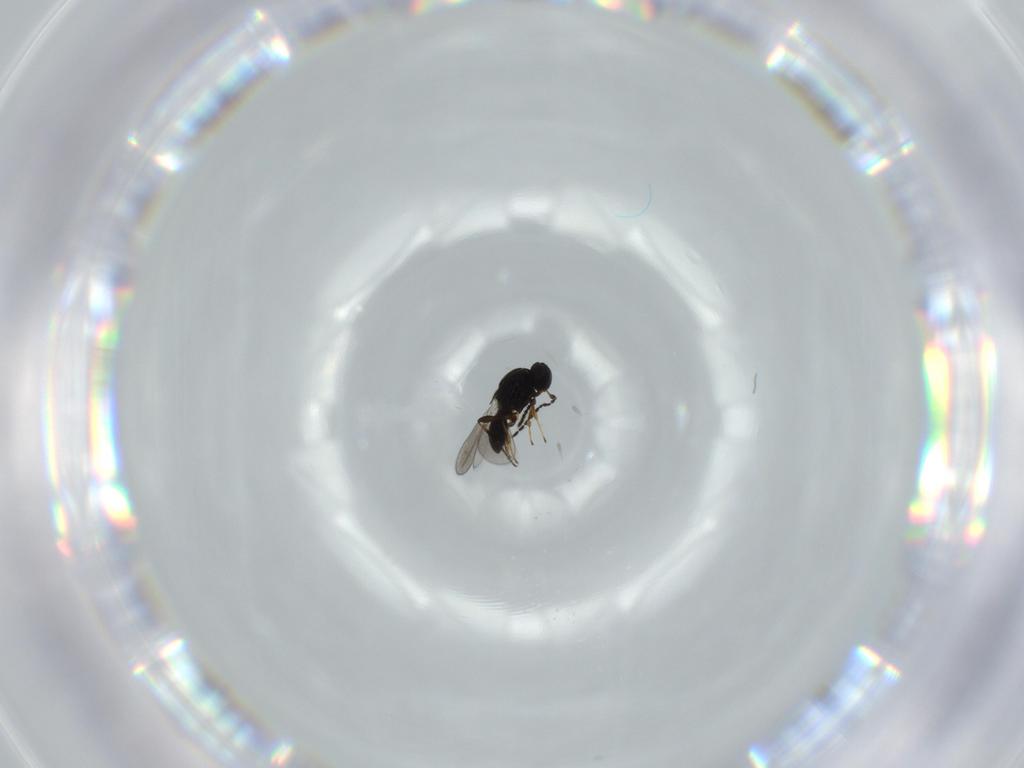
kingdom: Animalia
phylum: Arthropoda
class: Insecta
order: Hymenoptera
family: Platygastridae
